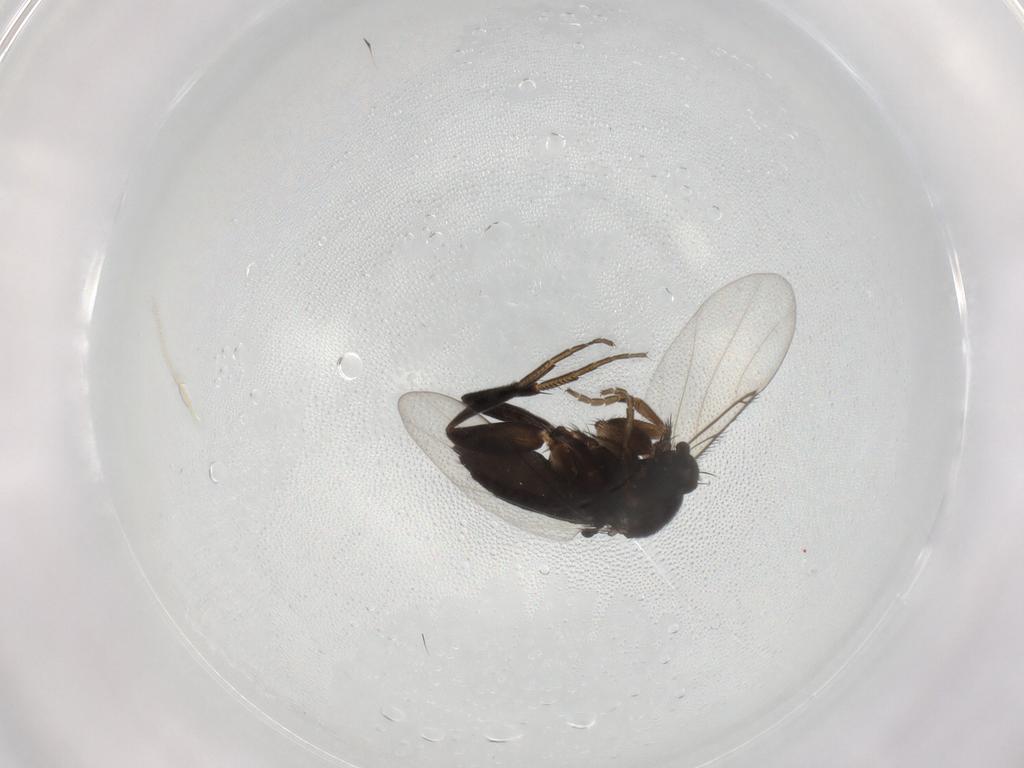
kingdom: Animalia
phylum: Arthropoda
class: Insecta
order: Diptera
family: Phoridae
